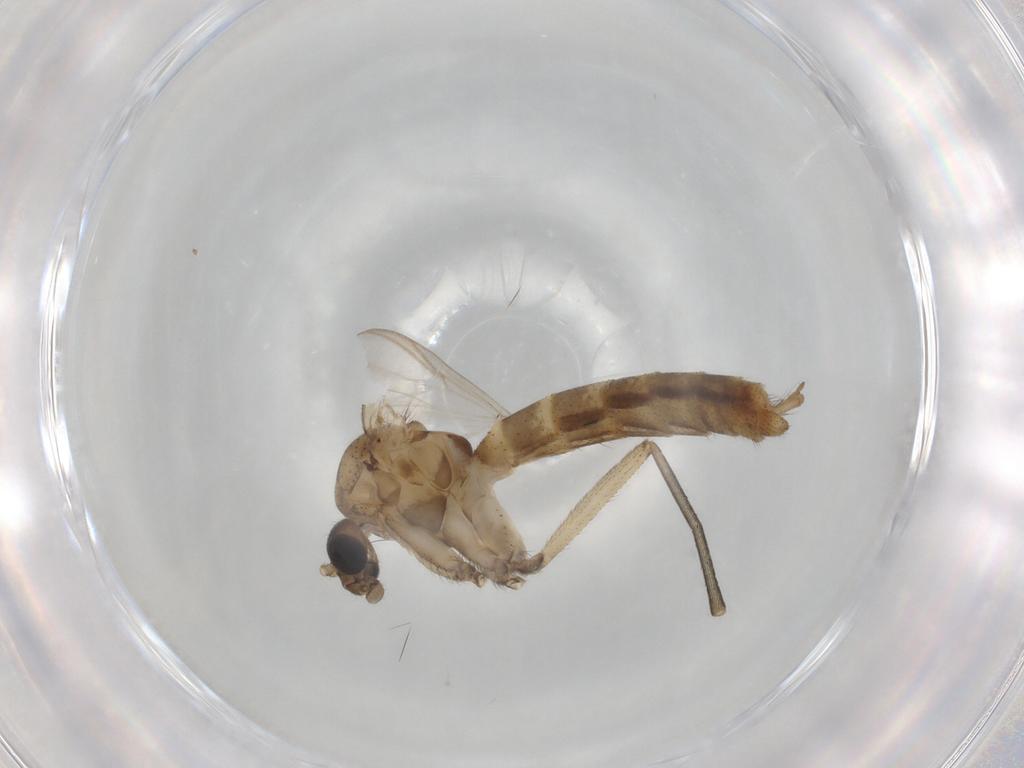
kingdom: Animalia
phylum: Arthropoda
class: Insecta
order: Diptera
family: Mycetophilidae
